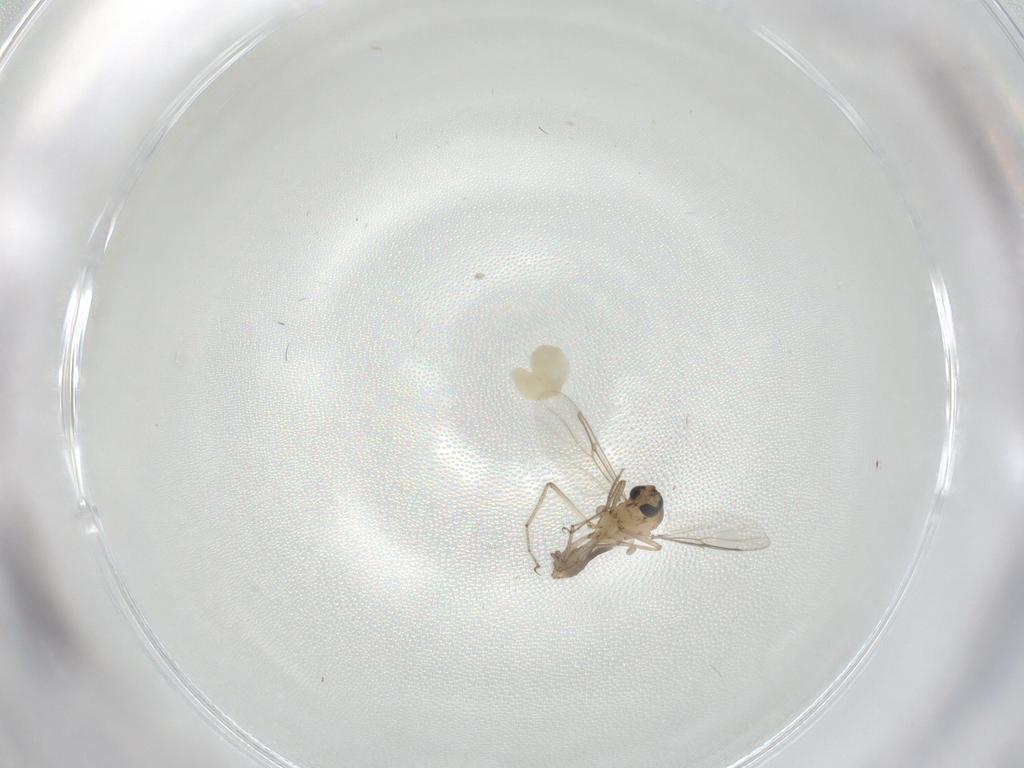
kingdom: Animalia
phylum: Arthropoda
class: Insecta
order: Diptera
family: Ceratopogonidae
